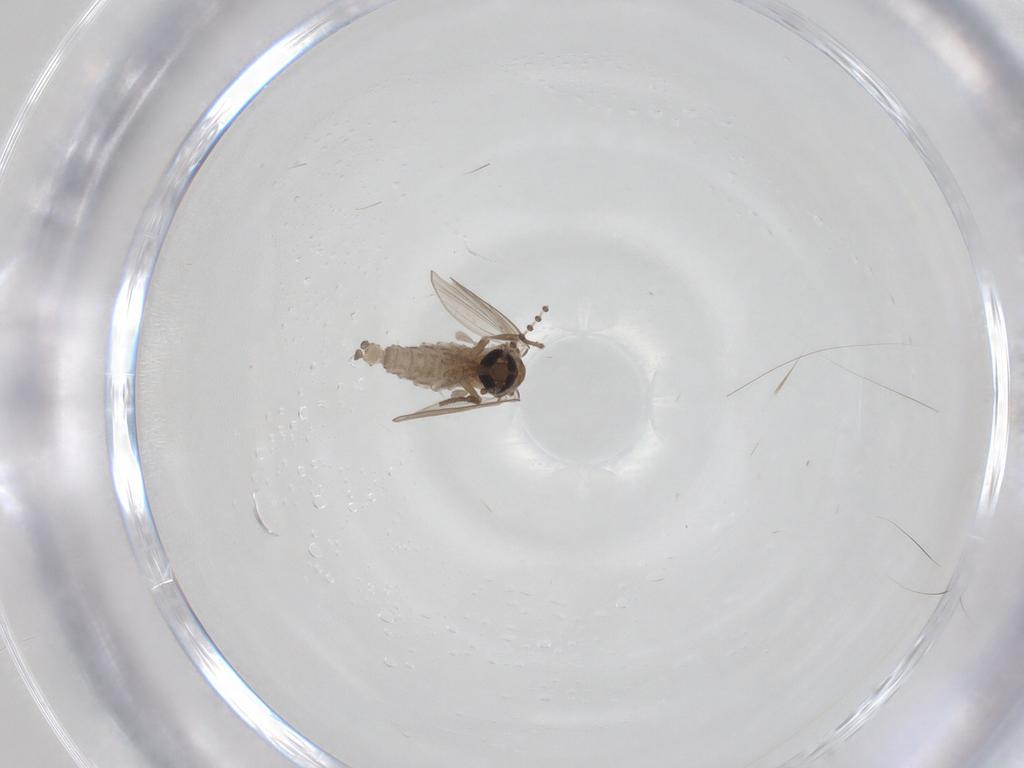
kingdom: Animalia
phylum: Arthropoda
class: Insecta
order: Diptera
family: Psychodidae
